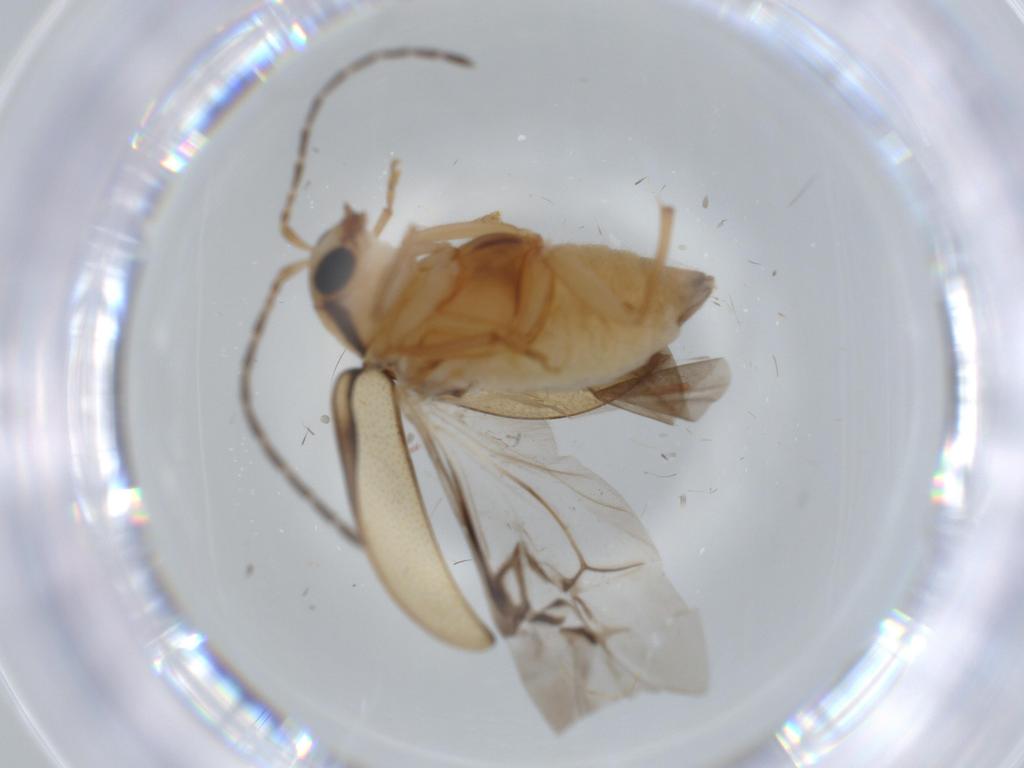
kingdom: Animalia
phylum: Arthropoda
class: Insecta
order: Coleoptera
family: Chrysomelidae
